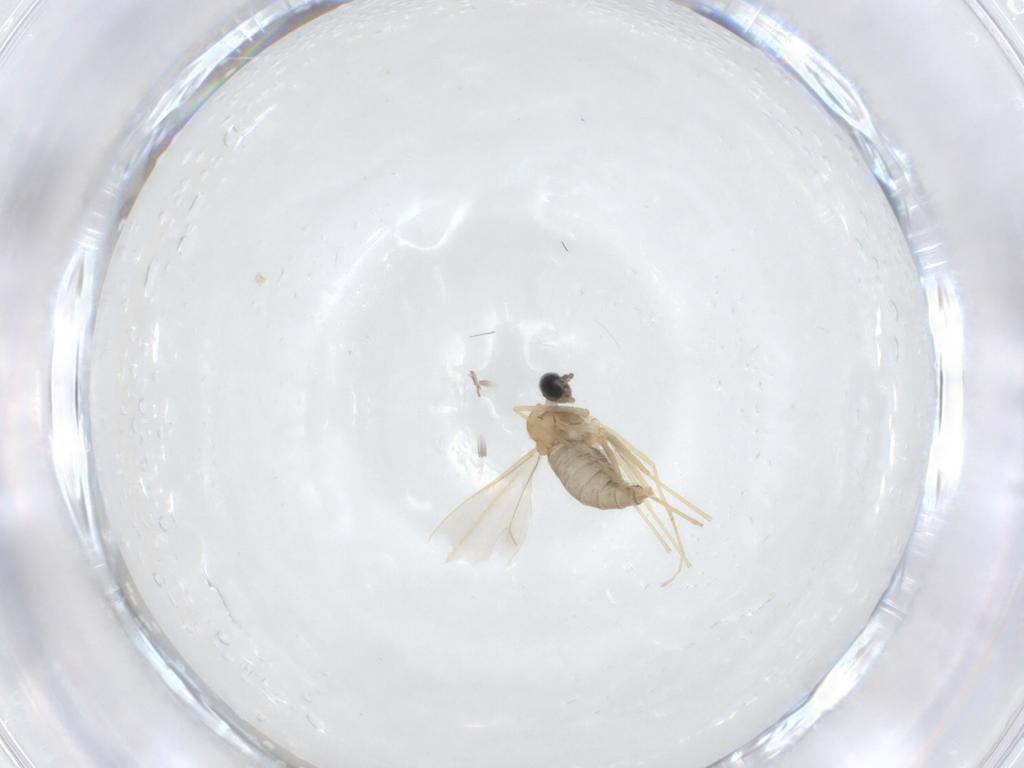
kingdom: Animalia
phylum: Arthropoda
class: Insecta
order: Diptera
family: Cecidomyiidae
